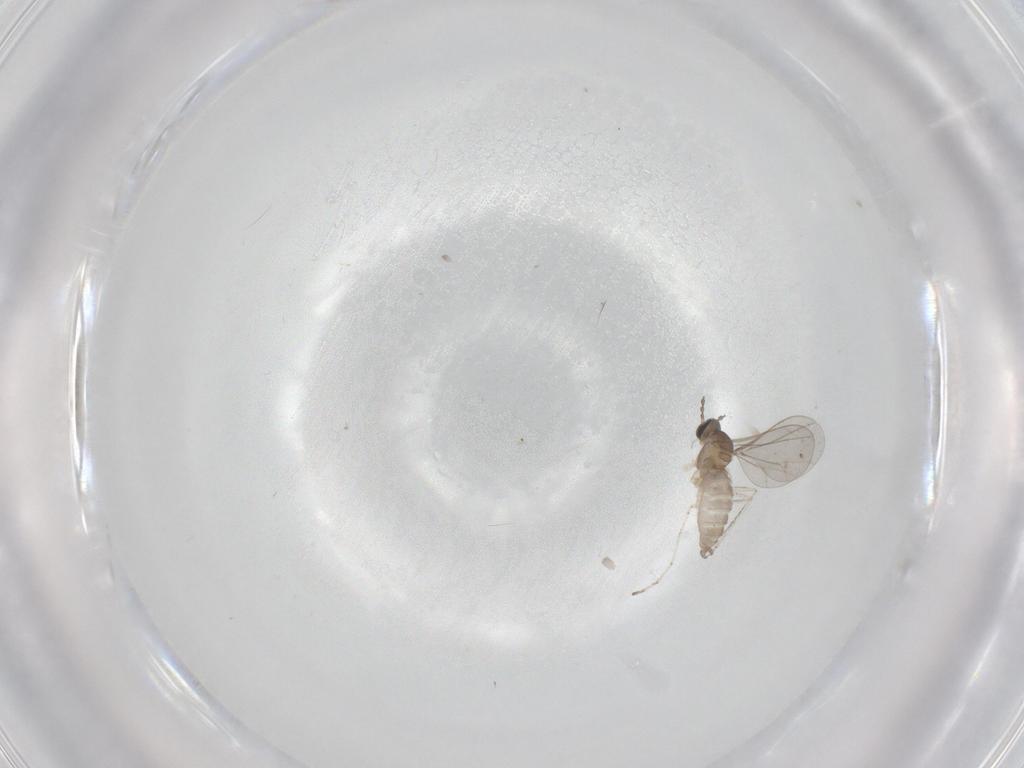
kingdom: Animalia
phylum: Arthropoda
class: Insecta
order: Diptera
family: Cecidomyiidae
